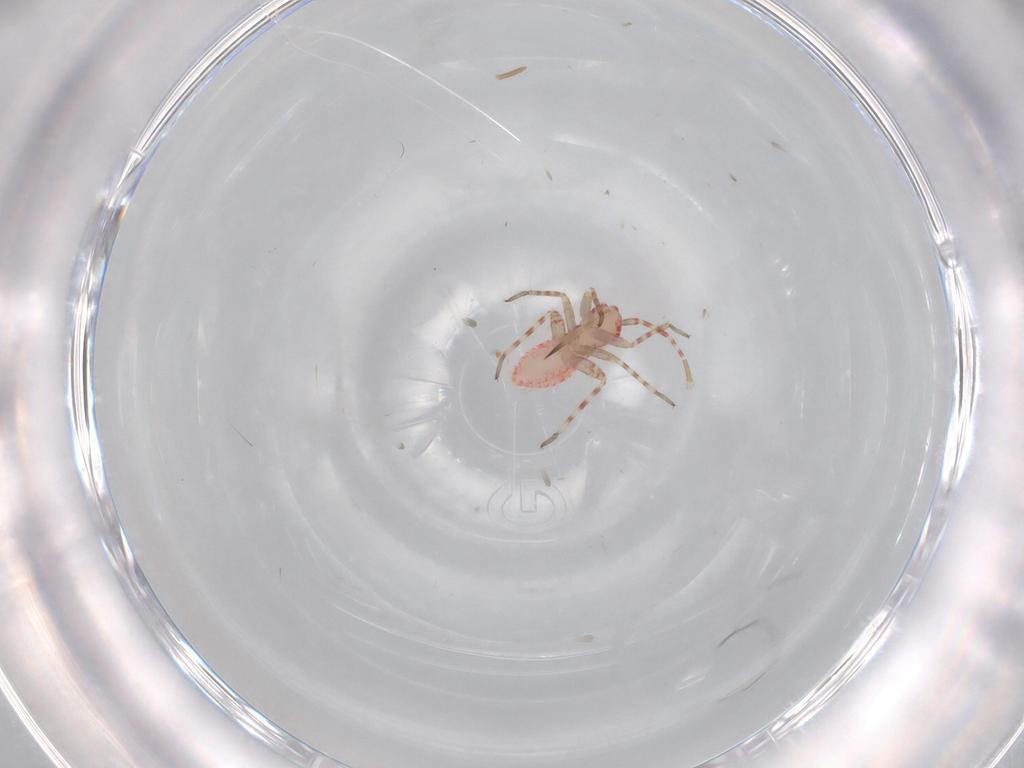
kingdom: Animalia
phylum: Arthropoda
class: Insecta
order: Hemiptera
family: Miridae
